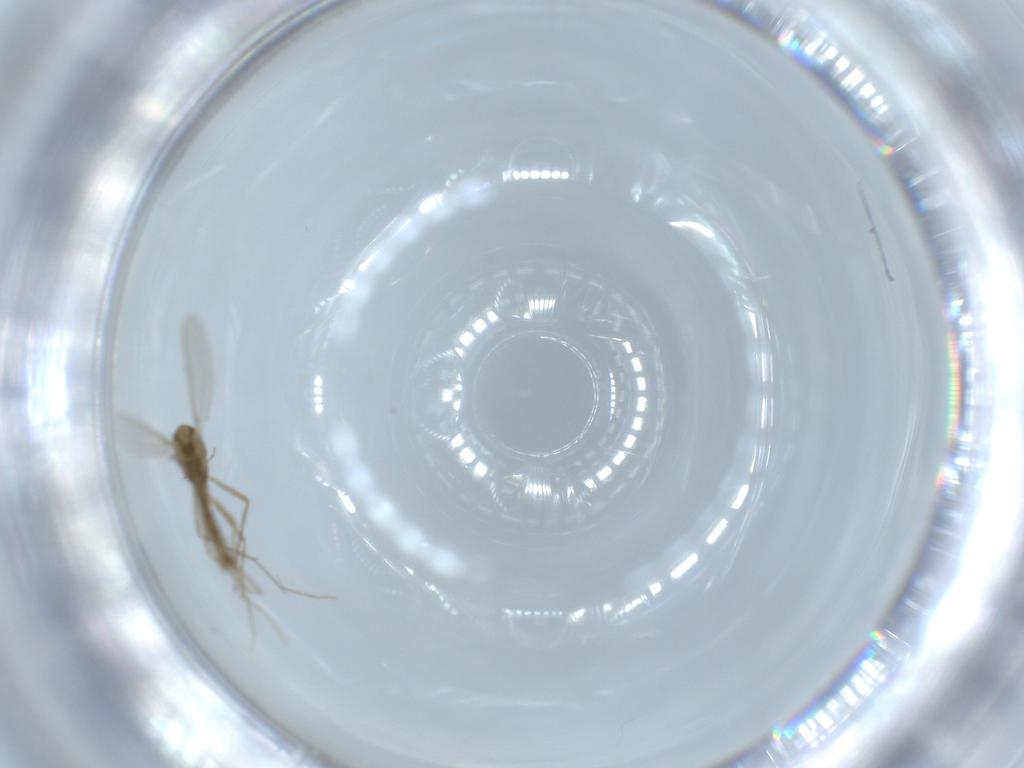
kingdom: Animalia
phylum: Arthropoda
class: Insecta
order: Diptera
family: Chironomidae
